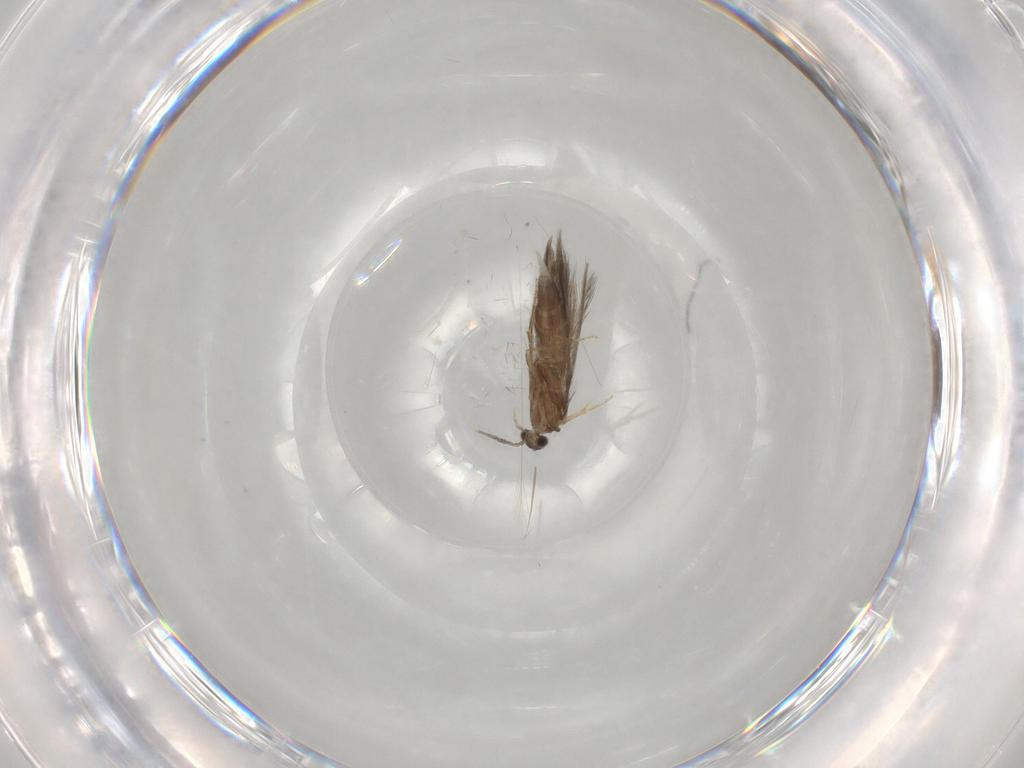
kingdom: Animalia
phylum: Arthropoda
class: Insecta
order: Trichoptera
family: Hydroptilidae
